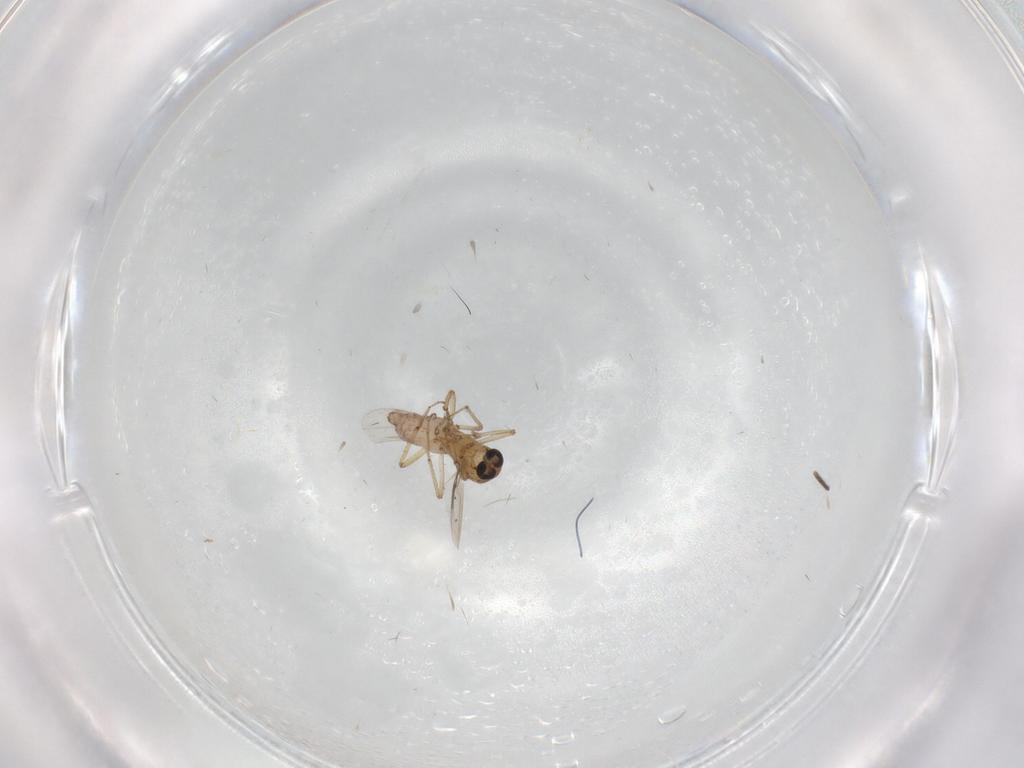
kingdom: Animalia
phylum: Arthropoda
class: Insecta
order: Diptera
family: Ceratopogonidae
